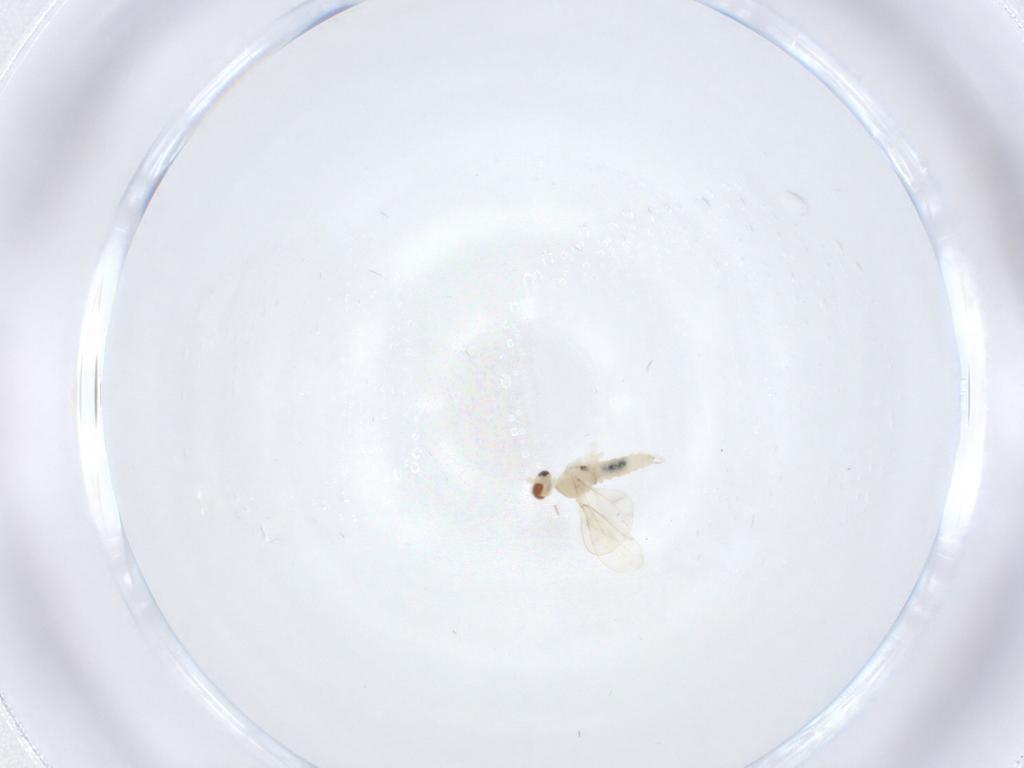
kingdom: Animalia
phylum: Arthropoda
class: Insecta
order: Diptera
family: Cecidomyiidae
